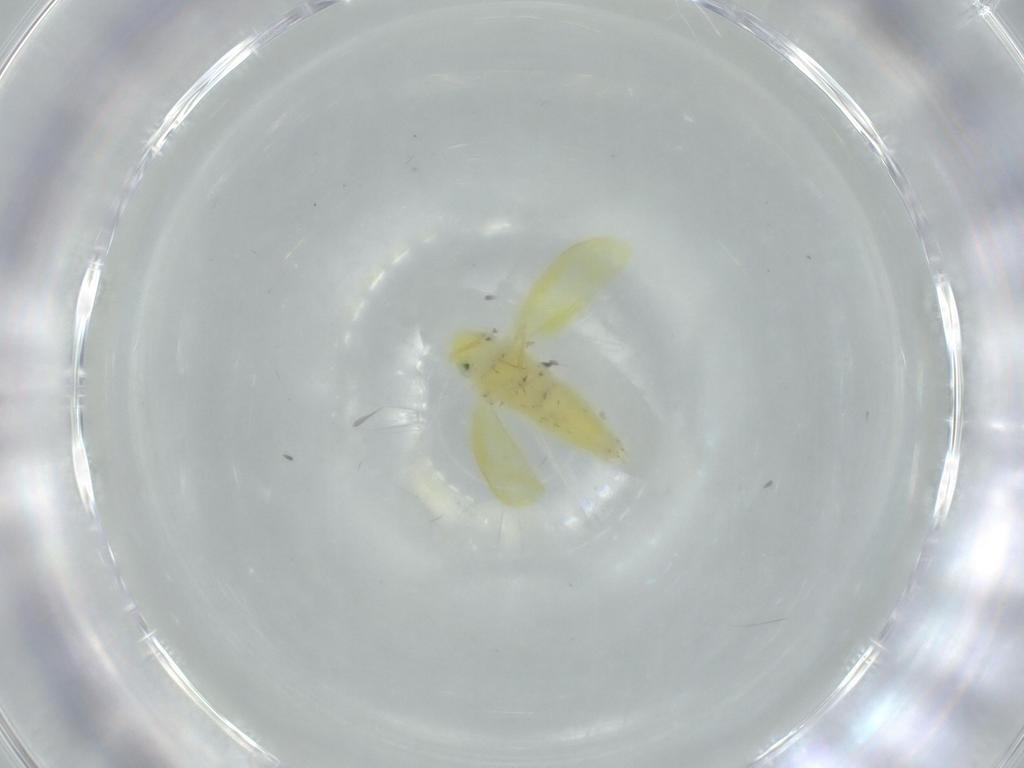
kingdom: Animalia
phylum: Arthropoda
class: Insecta
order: Hemiptera
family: Cicadellidae
